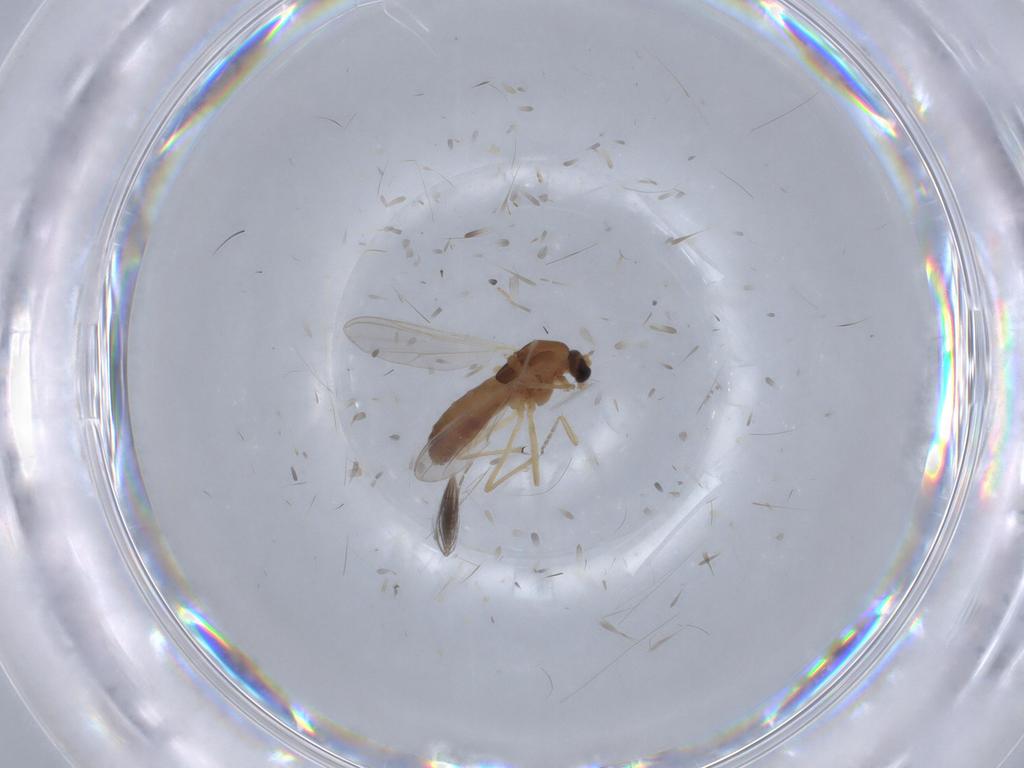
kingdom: Animalia
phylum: Arthropoda
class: Insecta
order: Diptera
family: Chironomidae
